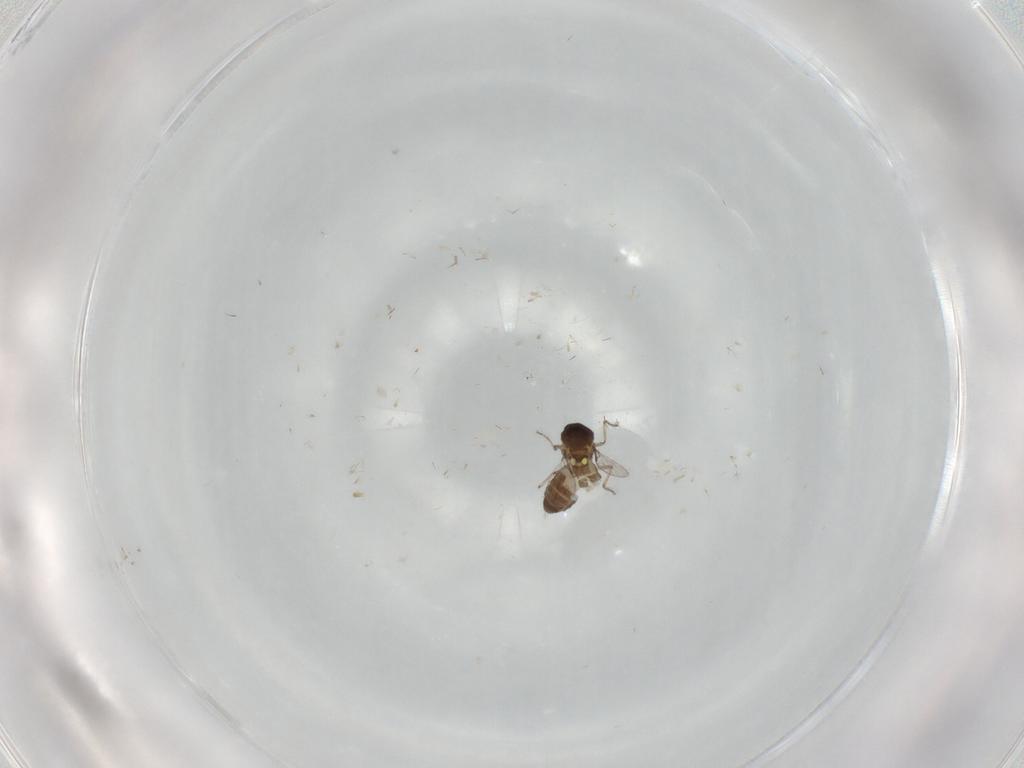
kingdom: Animalia
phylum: Arthropoda
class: Insecta
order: Diptera
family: Ceratopogonidae
